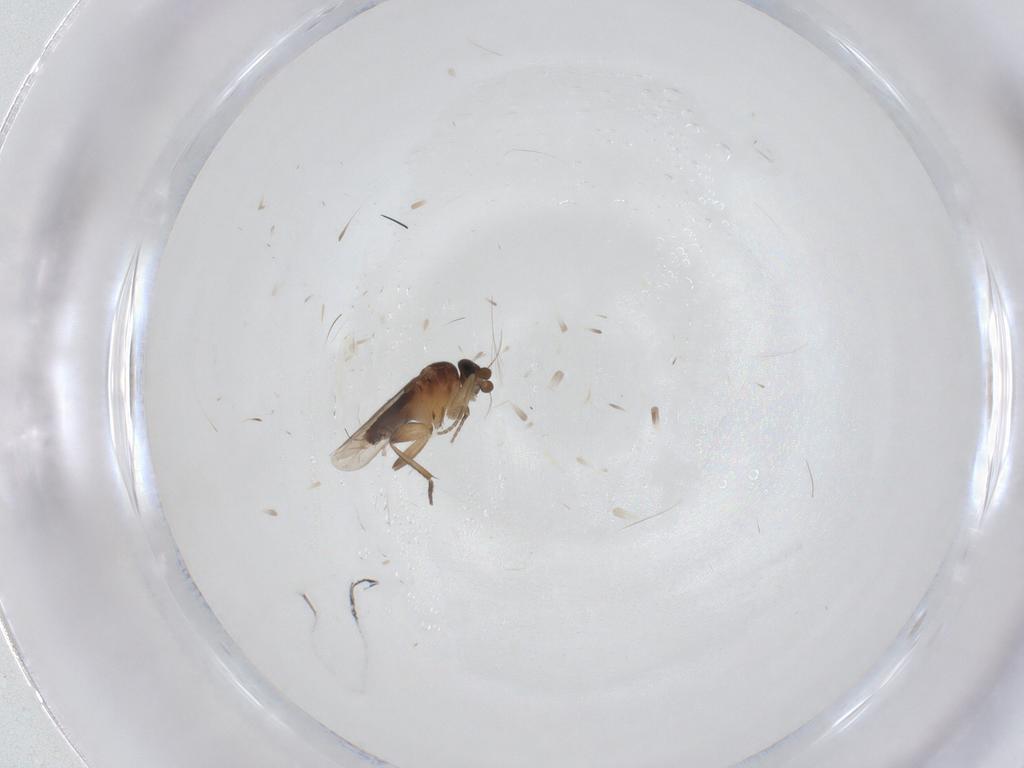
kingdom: Animalia
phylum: Arthropoda
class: Insecta
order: Diptera
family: Phoridae
